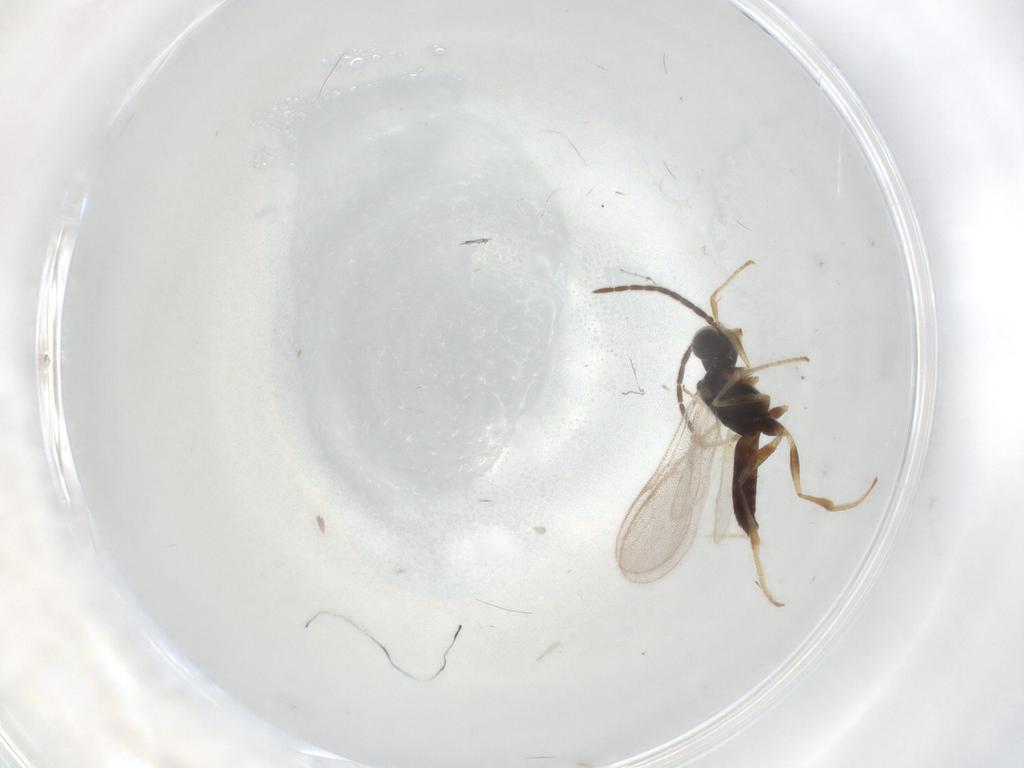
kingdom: Animalia
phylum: Arthropoda
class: Insecta
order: Hymenoptera
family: Dryinidae
